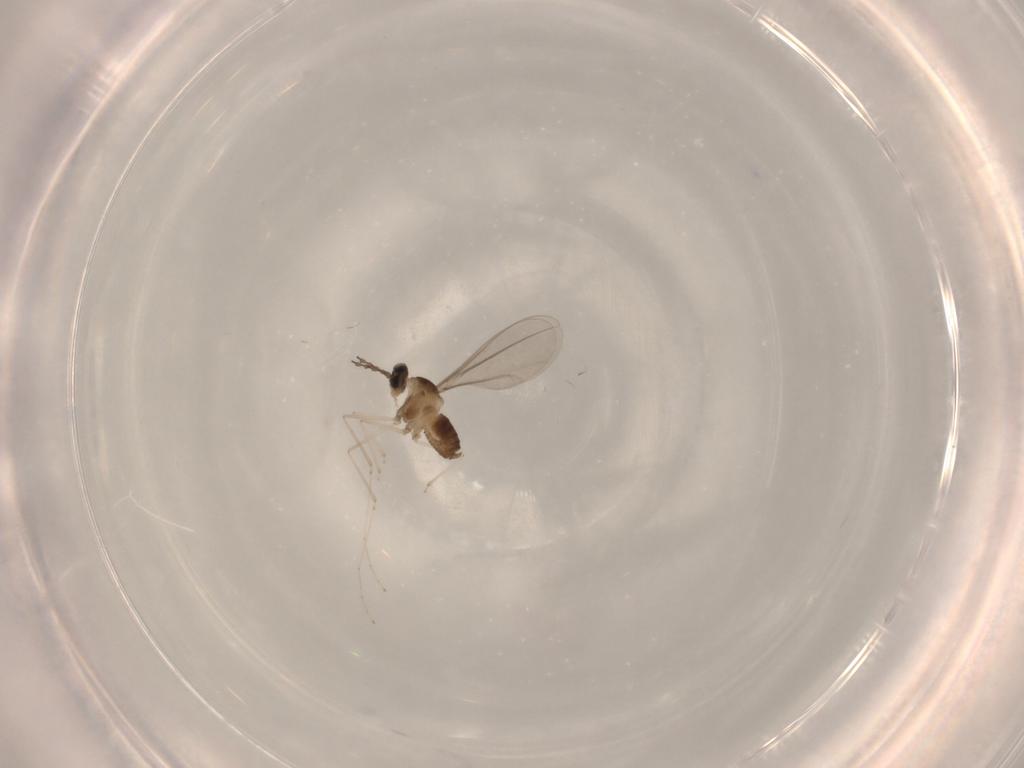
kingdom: Animalia
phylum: Arthropoda
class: Insecta
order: Diptera
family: Cecidomyiidae
